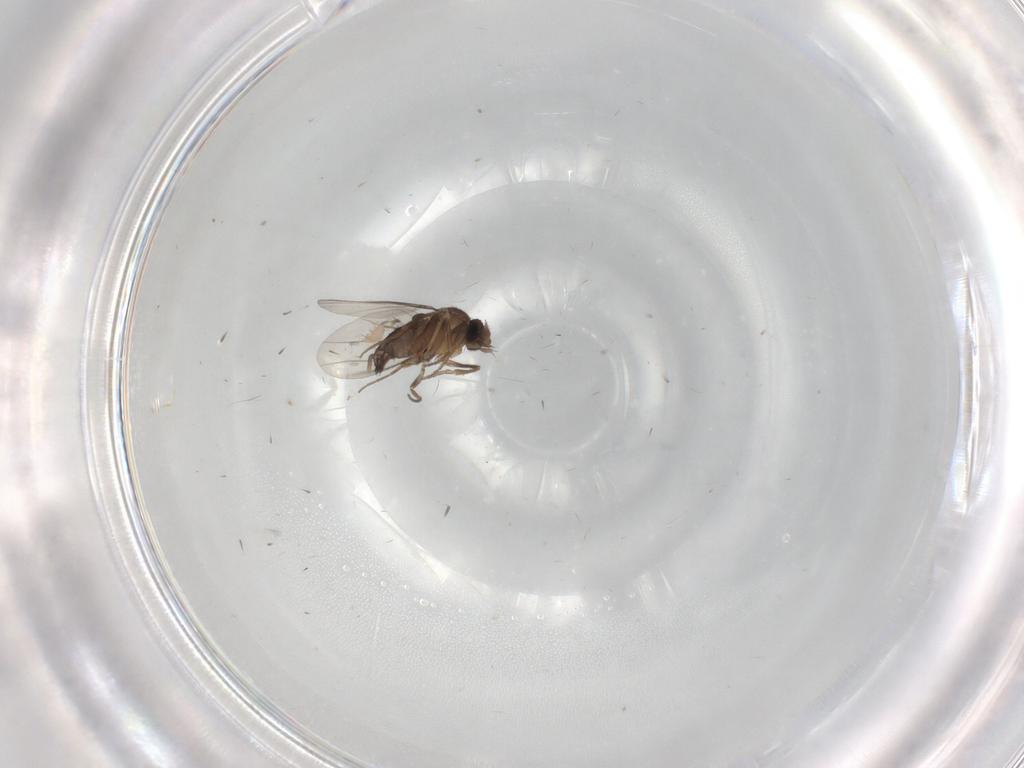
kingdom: Animalia
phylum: Arthropoda
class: Insecta
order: Diptera
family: Phoridae
